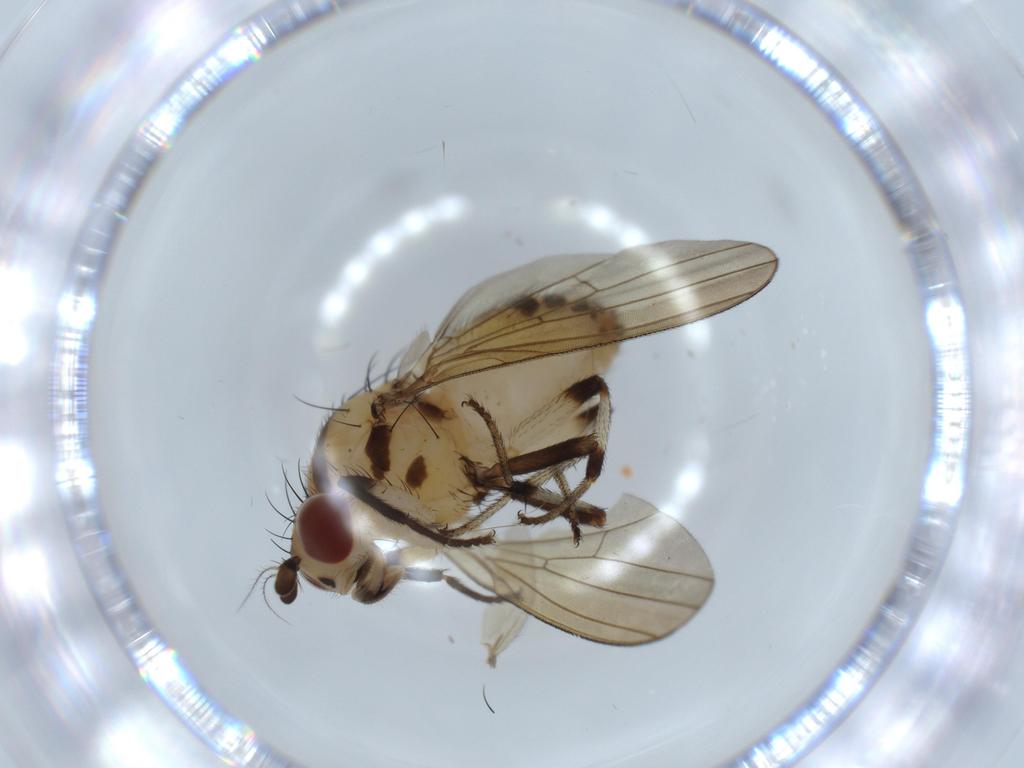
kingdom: Animalia
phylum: Arthropoda
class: Insecta
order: Diptera
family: Lauxaniidae
